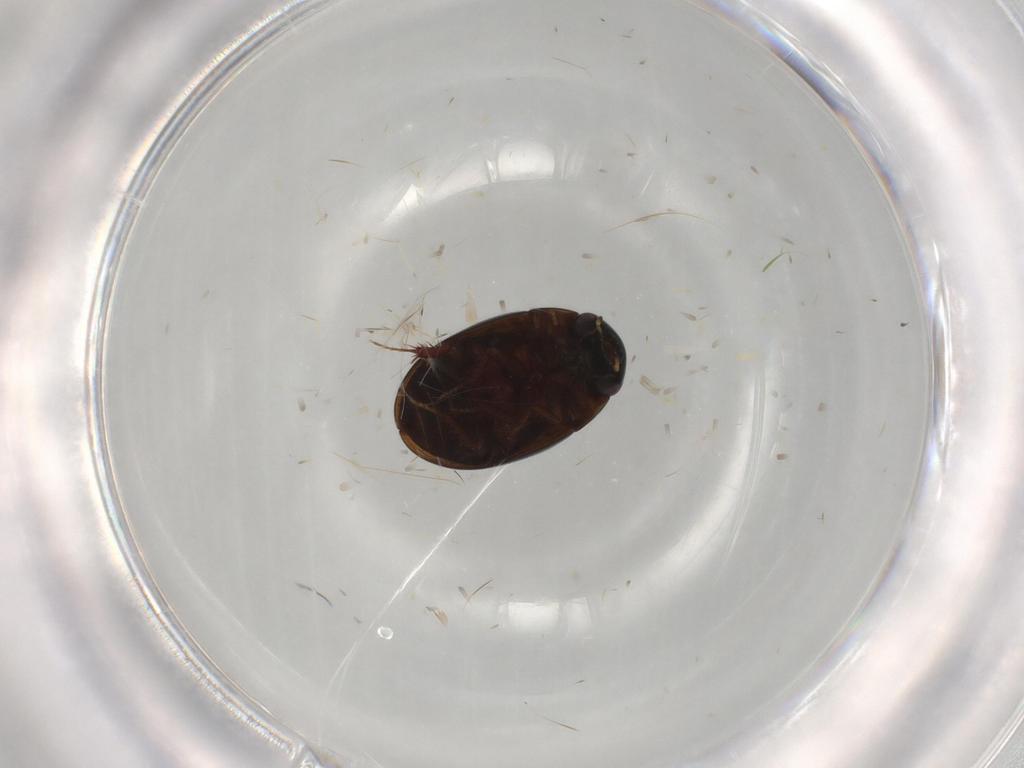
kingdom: Animalia
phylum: Arthropoda
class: Insecta
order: Coleoptera
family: Hydrophilidae
